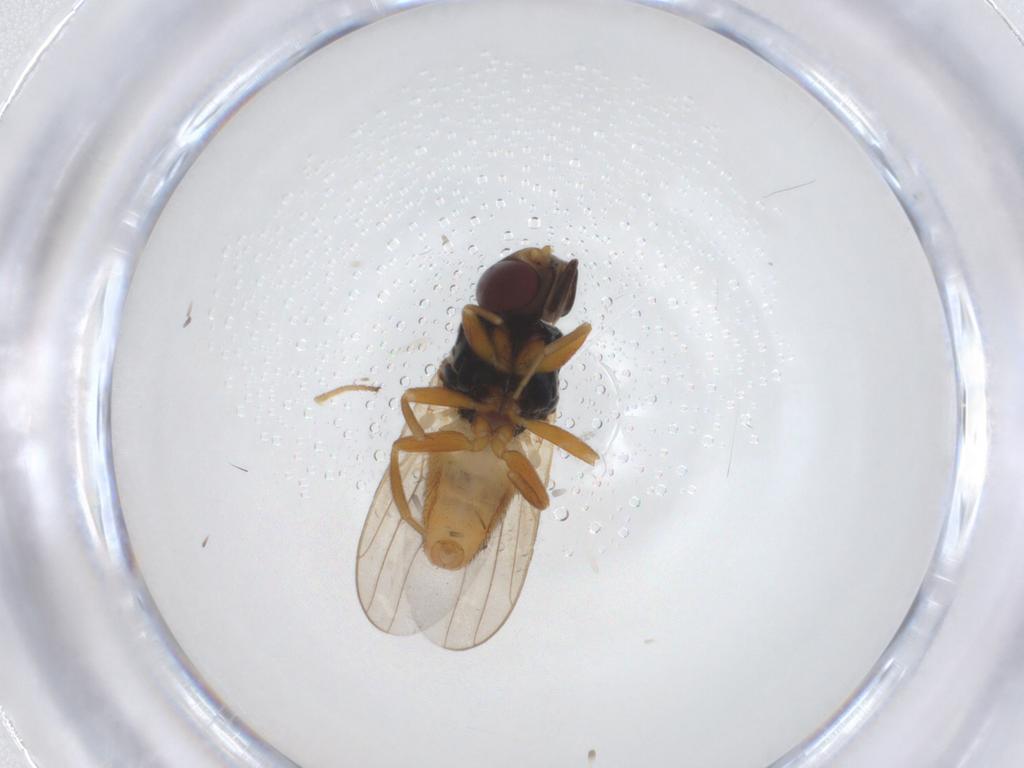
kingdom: Animalia
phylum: Arthropoda
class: Insecta
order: Diptera
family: Chloropidae
